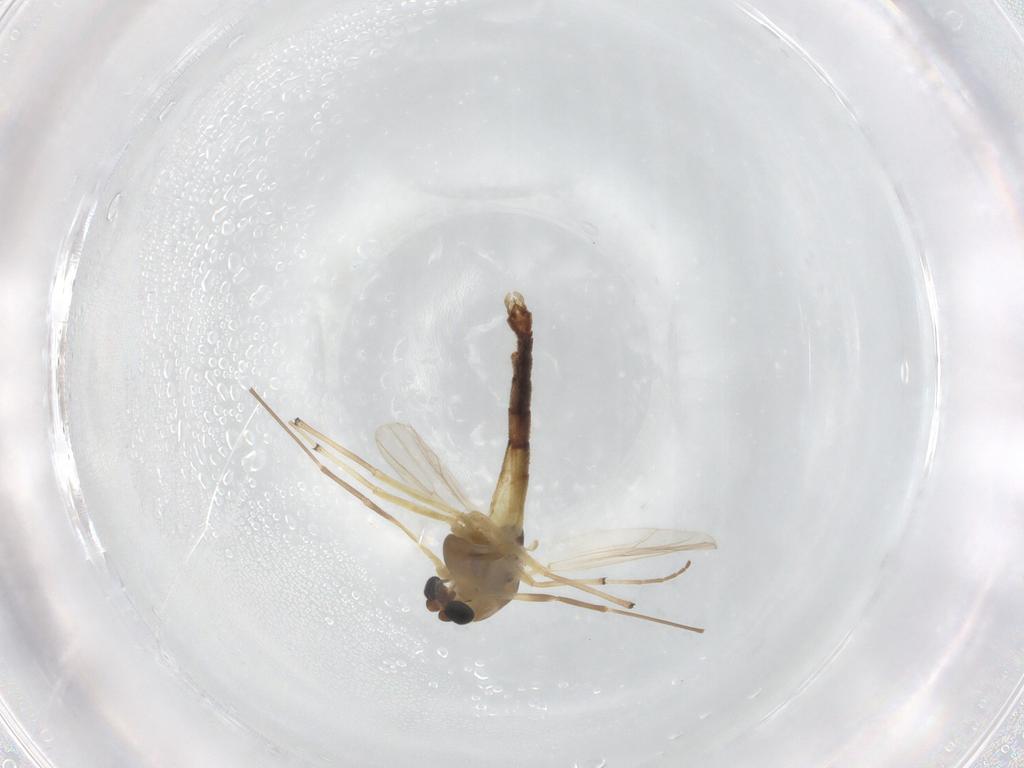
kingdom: Animalia
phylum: Arthropoda
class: Insecta
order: Diptera
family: Chironomidae
